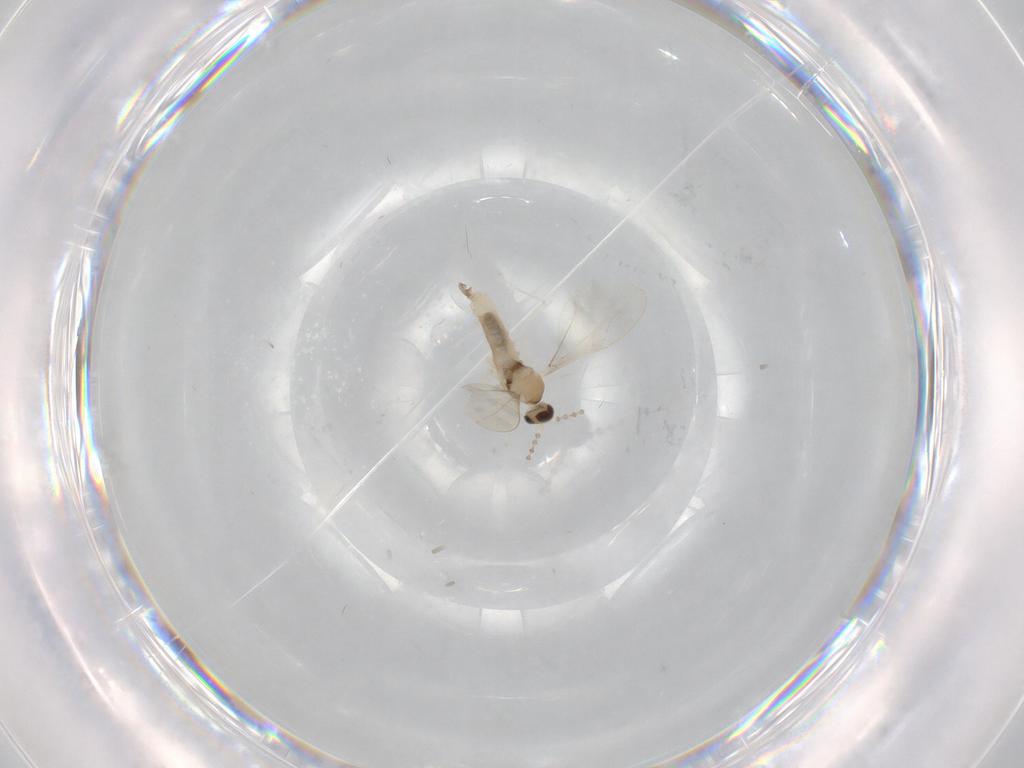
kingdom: Animalia
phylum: Arthropoda
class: Insecta
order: Diptera
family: Cecidomyiidae
